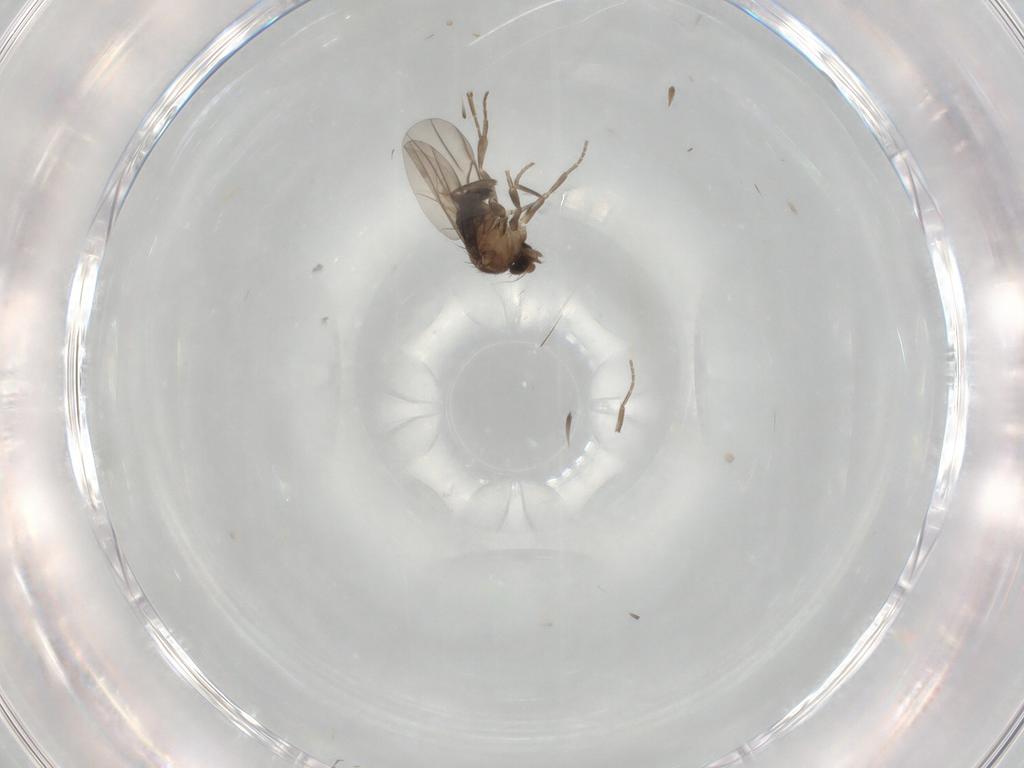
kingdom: Animalia
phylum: Arthropoda
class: Insecta
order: Diptera
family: Phoridae
